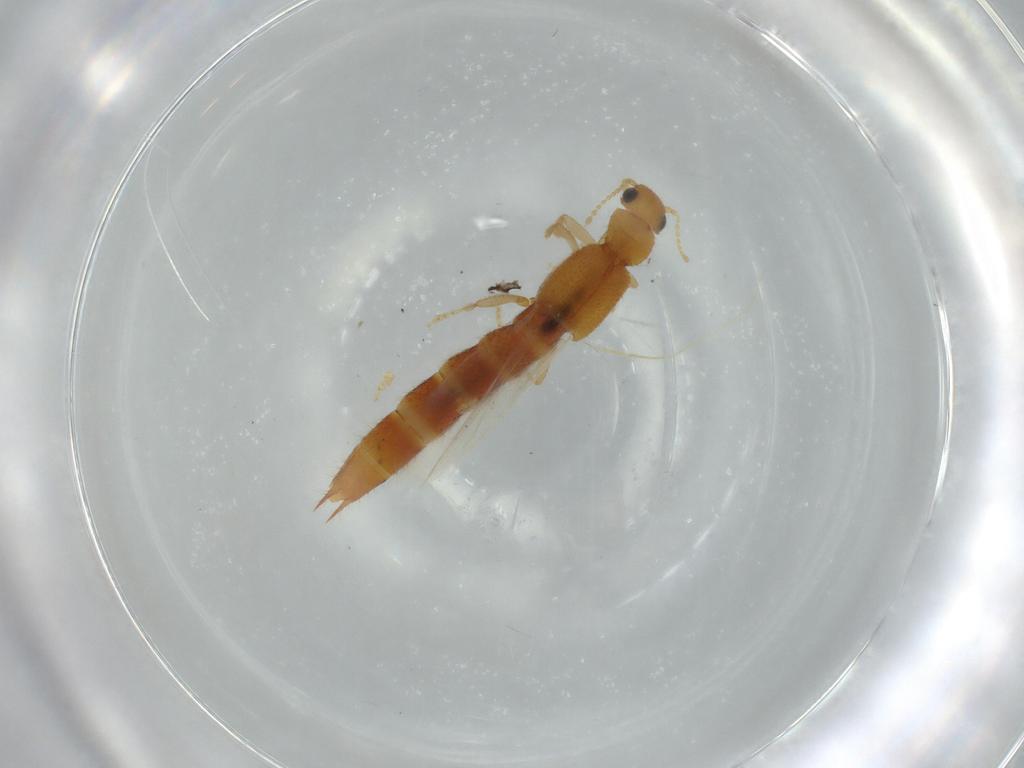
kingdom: Animalia
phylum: Arthropoda
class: Insecta
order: Coleoptera
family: Staphylinidae
